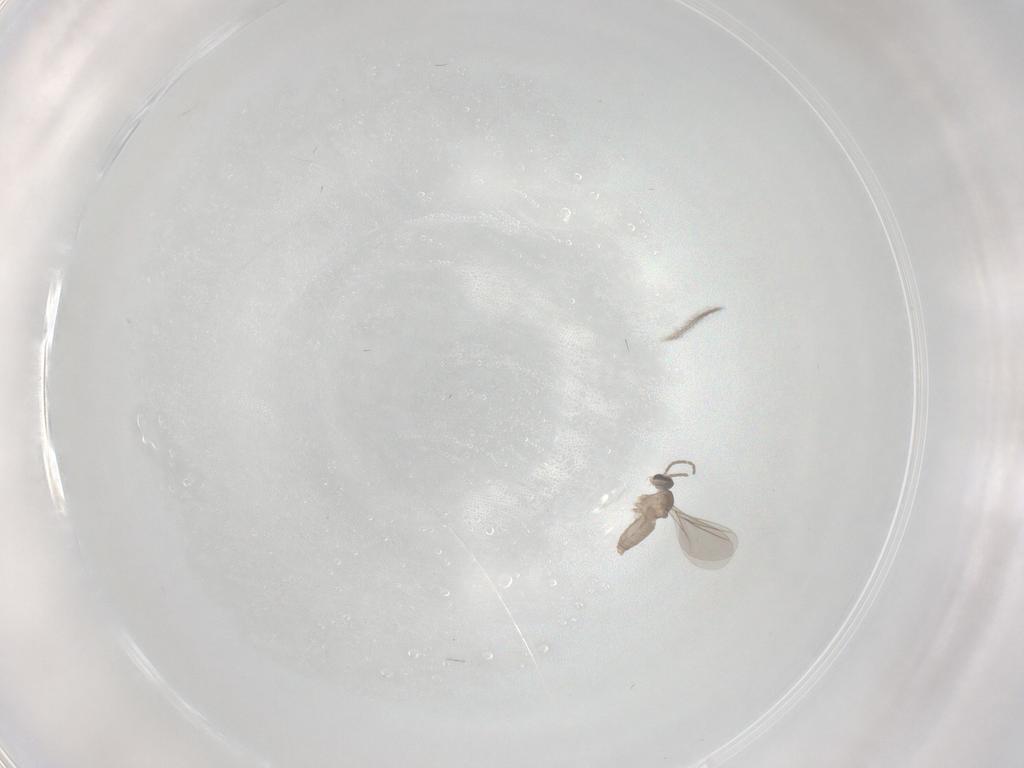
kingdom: Animalia
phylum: Arthropoda
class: Insecta
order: Diptera
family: Cecidomyiidae
